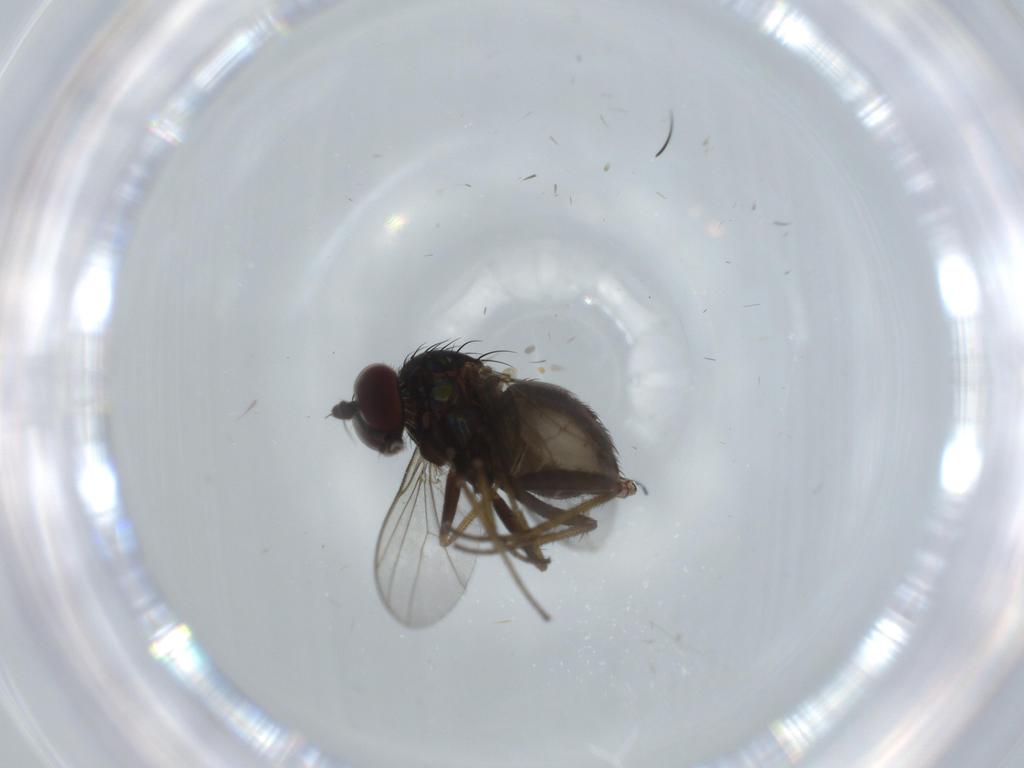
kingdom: Animalia
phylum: Arthropoda
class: Insecta
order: Diptera
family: Dolichopodidae
